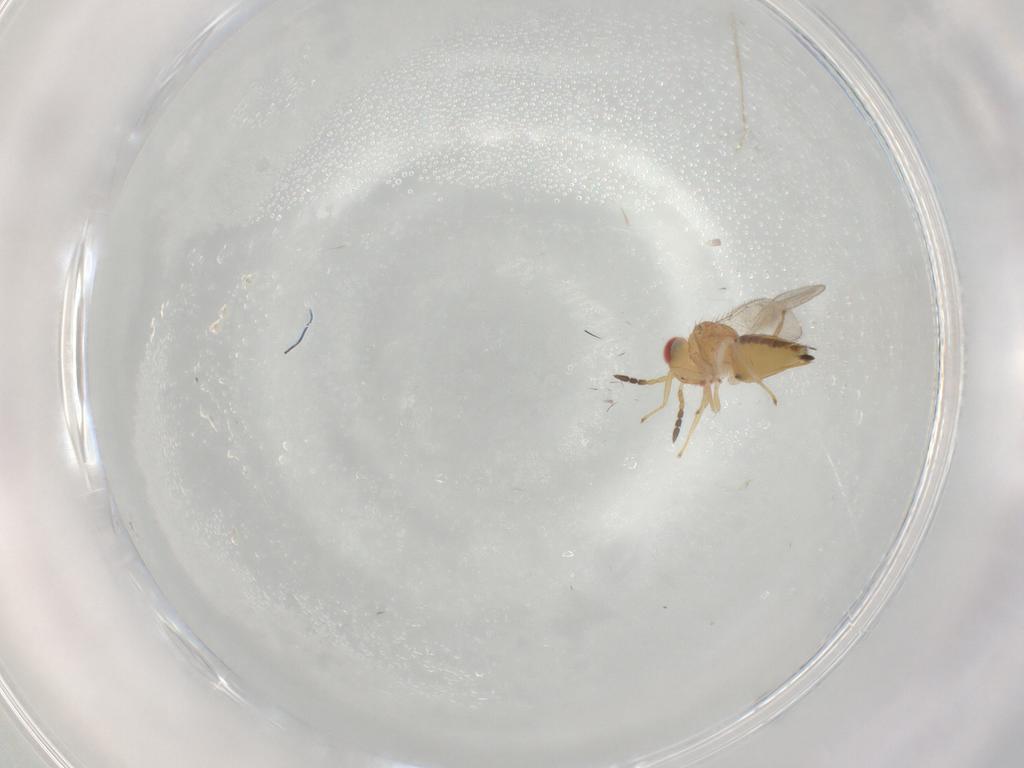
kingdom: Animalia
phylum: Arthropoda
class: Insecta
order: Hymenoptera
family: Eulophidae
